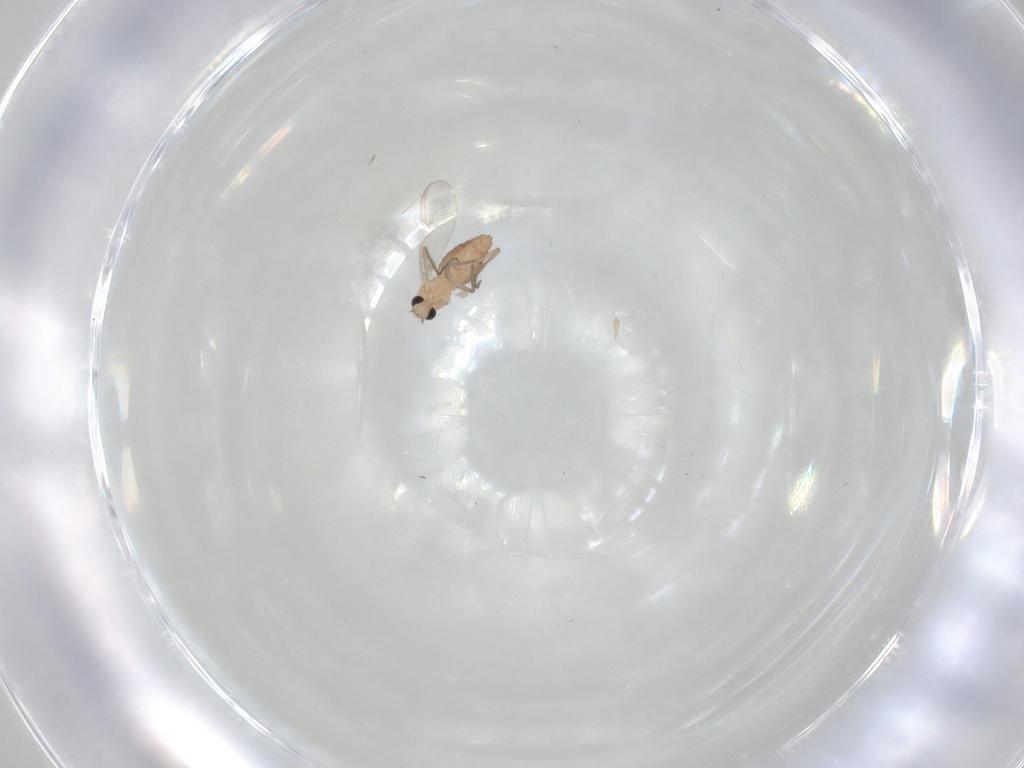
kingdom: Animalia
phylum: Arthropoda
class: Insecta
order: Diptera
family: Chironomidae
